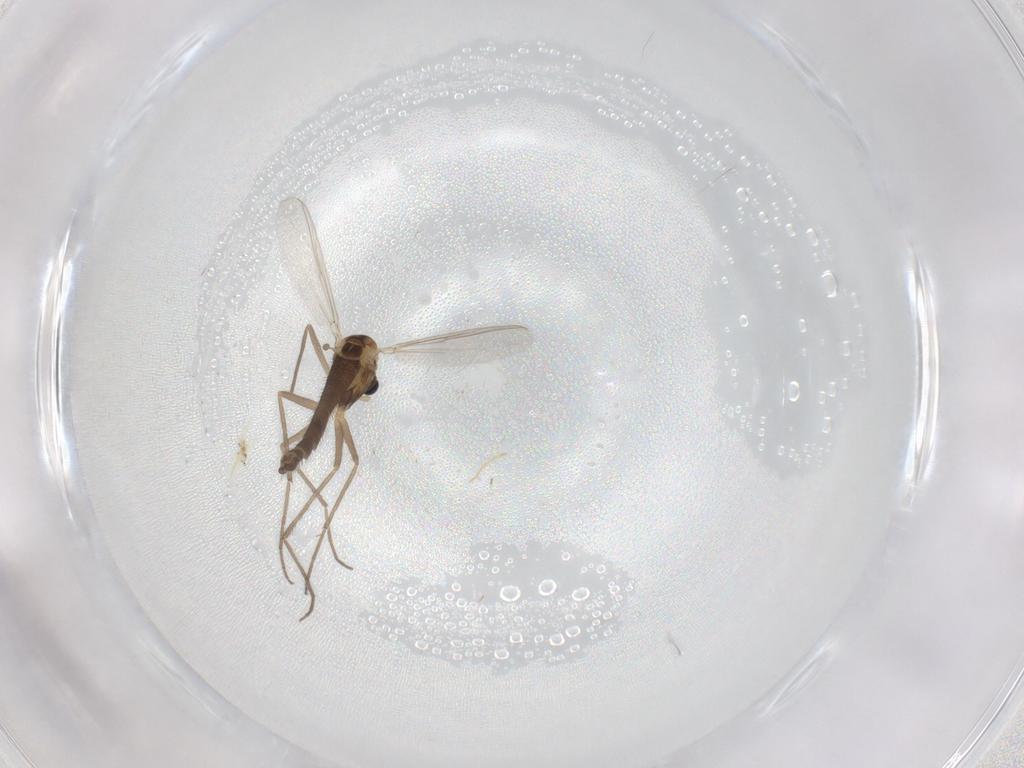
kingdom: Animalia
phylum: Arthropoda
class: Insecta
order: Diptera
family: Chironomidae
